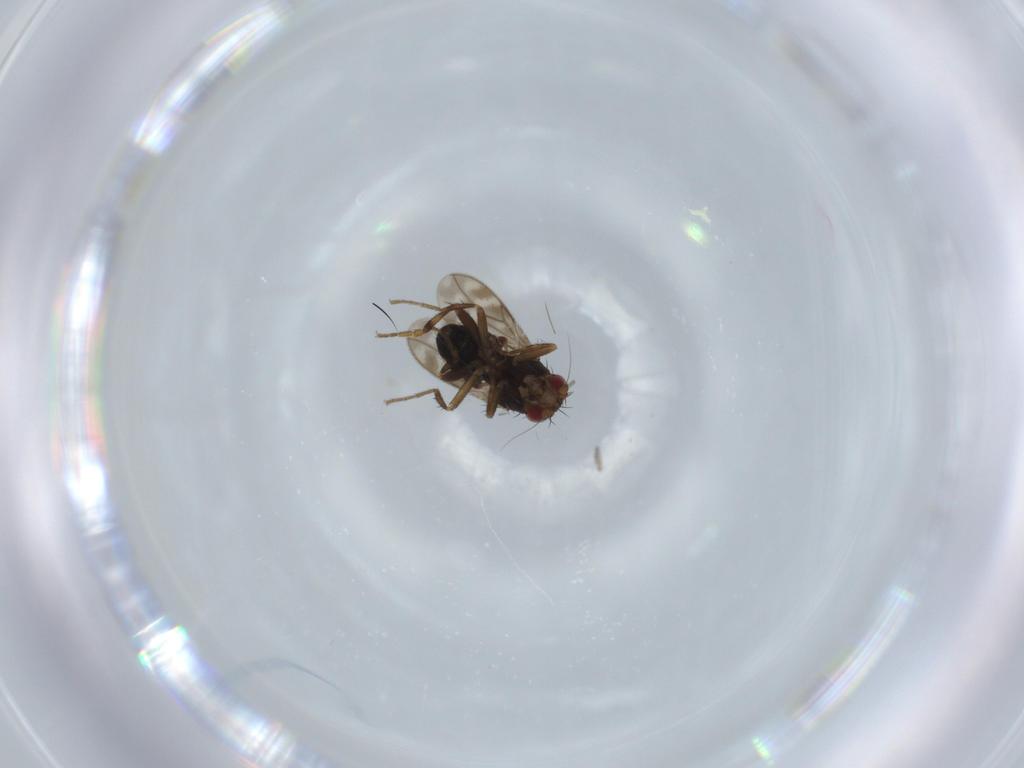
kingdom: Animalia
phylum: Arthropoda
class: Insecta
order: Diptera
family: Sphaeroceridae
